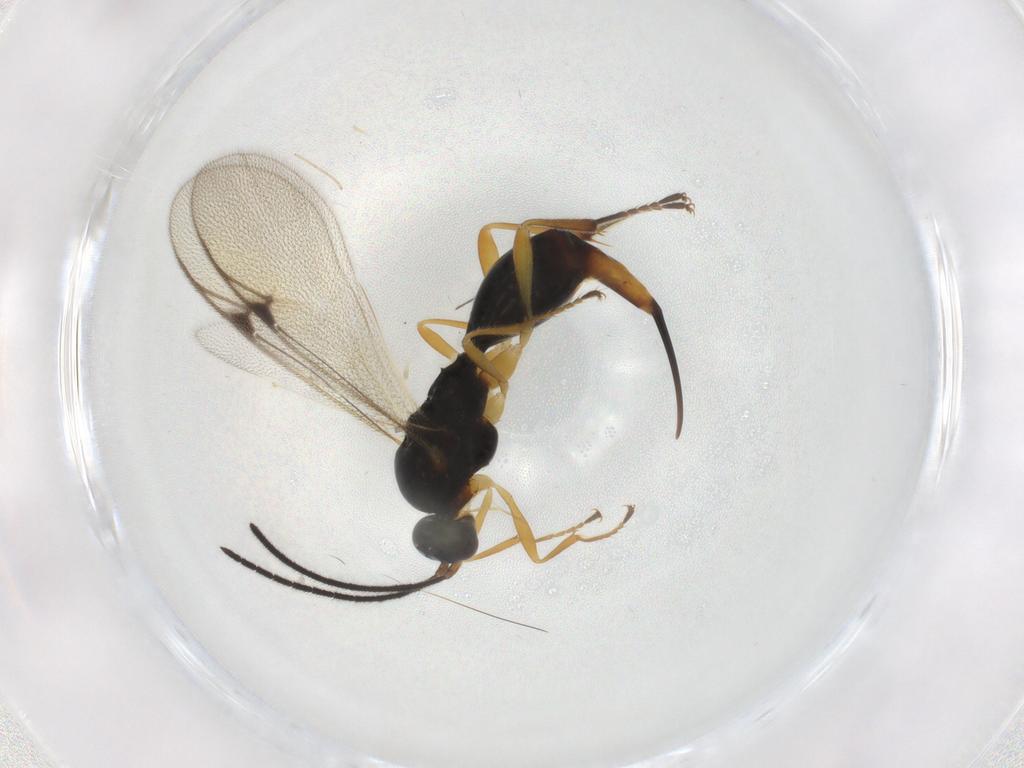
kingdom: Animalia
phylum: Arthropoda
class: Insecta
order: Hymenoptera
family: Proctotrupidae
